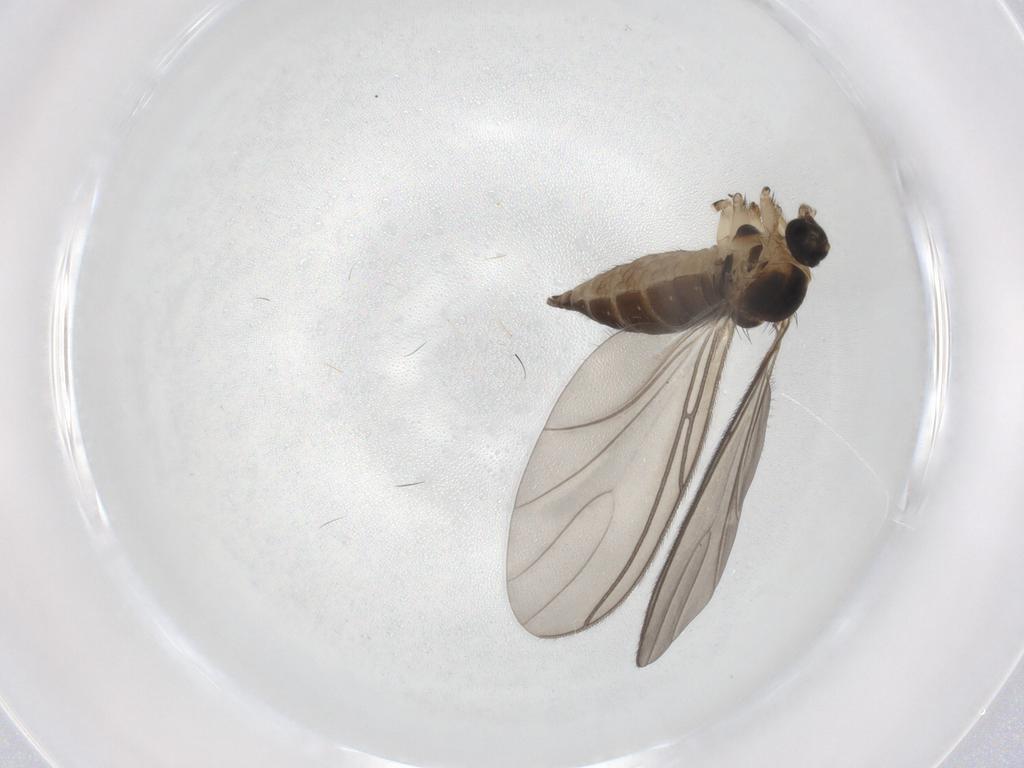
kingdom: Animalia
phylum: Arthropoda
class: Insecta
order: Diptera
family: Sciaridae
